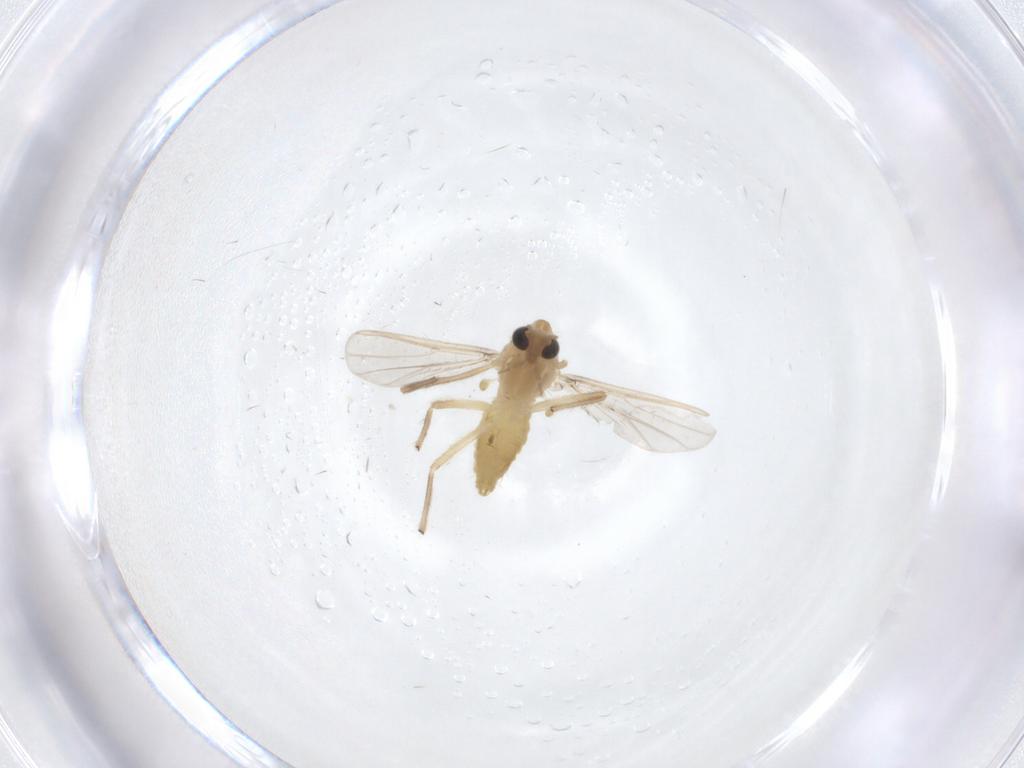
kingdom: Animalia
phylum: Arthropoda
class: Insecta
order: Diptera
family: Chironomidae
